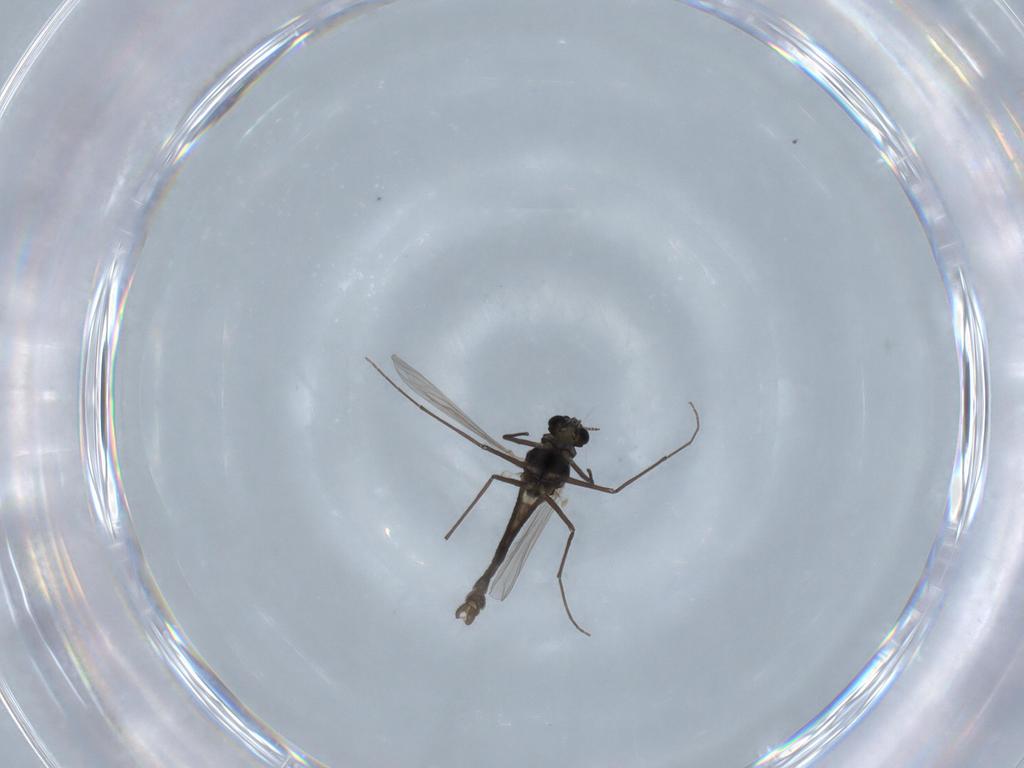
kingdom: Animalia
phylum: Arthropoda
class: Insecta
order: Diptera
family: Chironomidae
